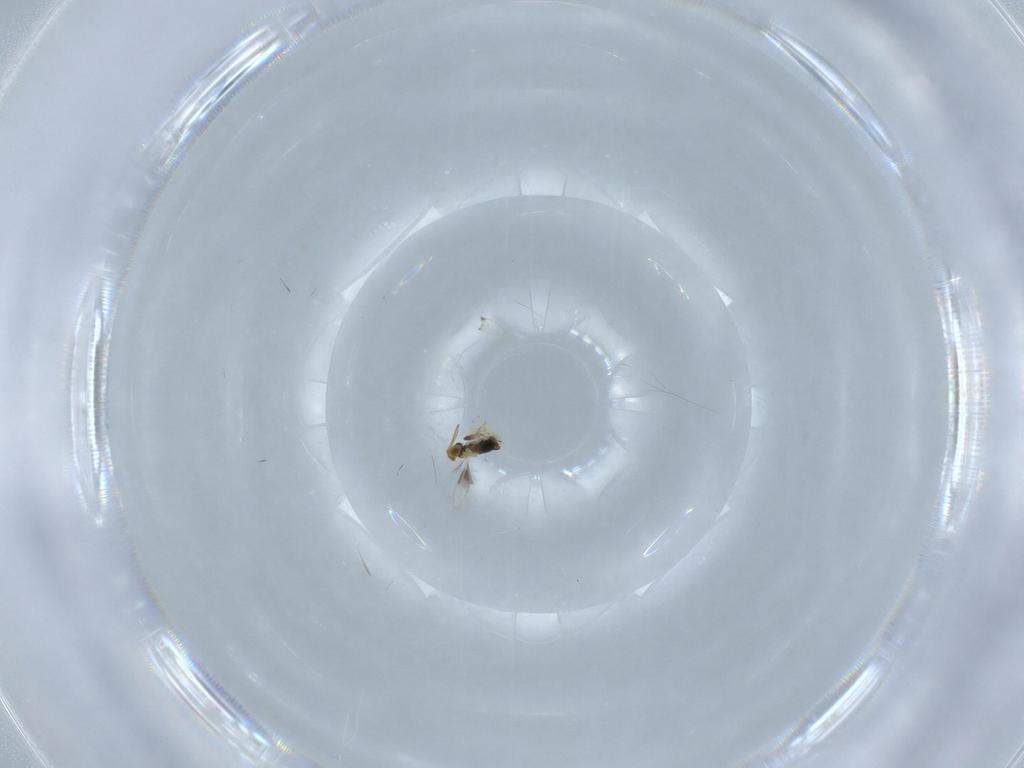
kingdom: Animalia
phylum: Arthropoda
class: Insecta
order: Hymenoptera
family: Aphelinidae
